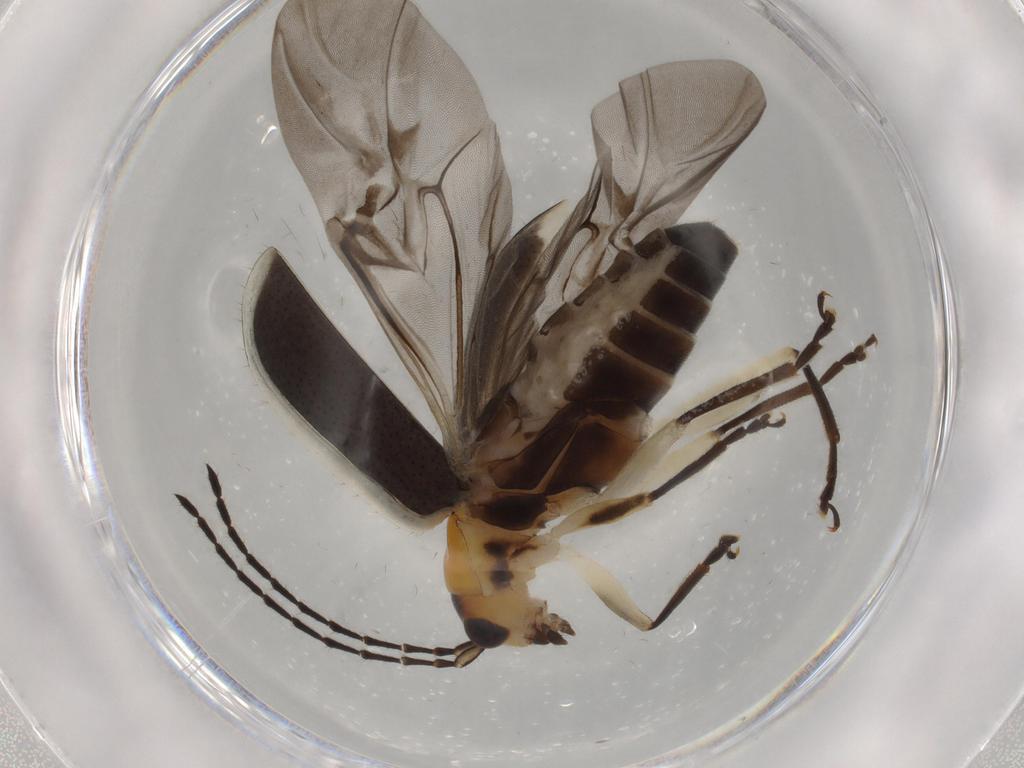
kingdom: Animalia
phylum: Arthropoda
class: Insecta
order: Coleoptera
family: Chrysomelidae
